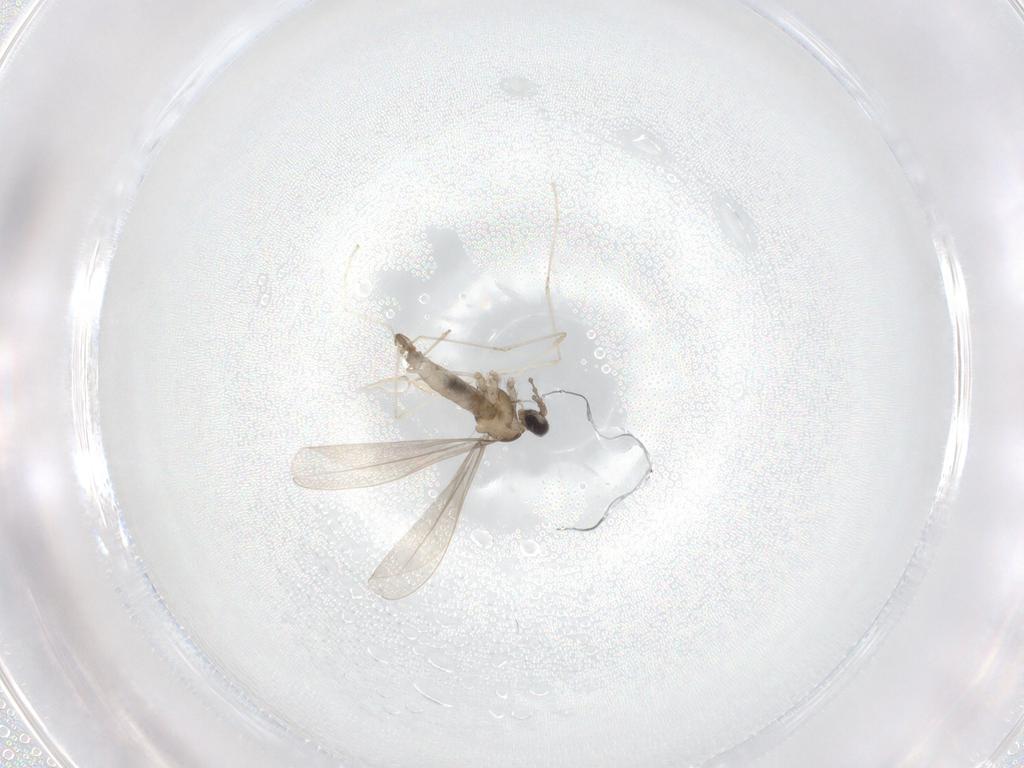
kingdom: Animalia
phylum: Arthropoda
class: Insecta
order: Diptera
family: Cecidomyiidae
